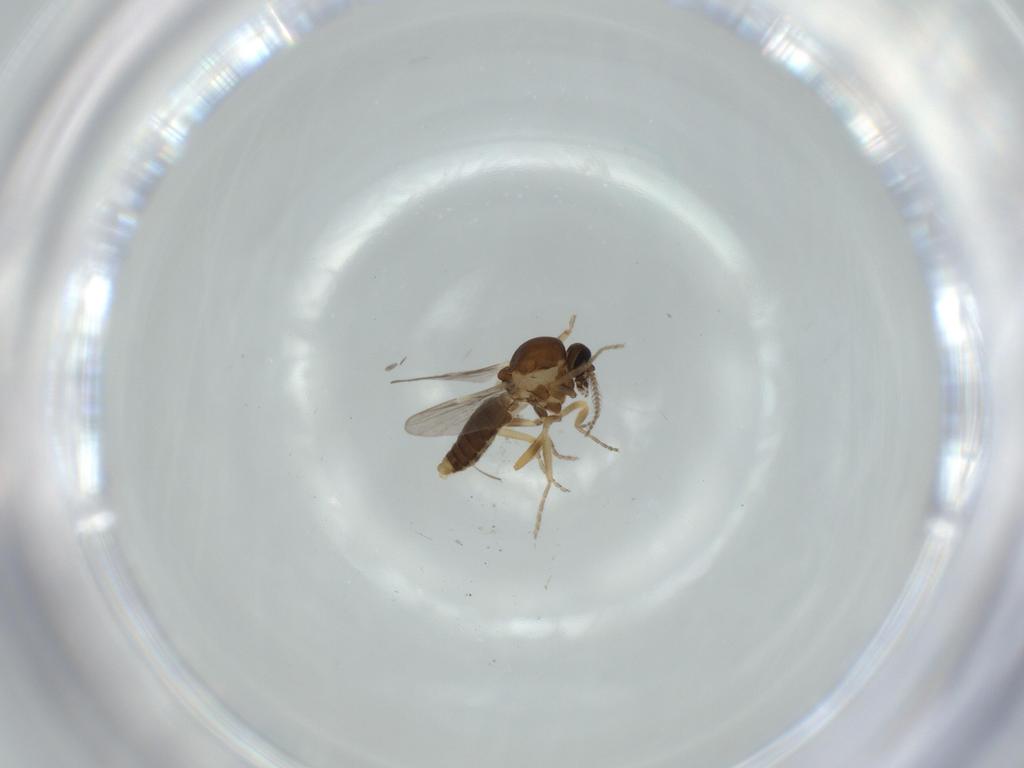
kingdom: Animalia
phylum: Arthropoda
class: Insecta
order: Diptera
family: Ceratopogonidae
